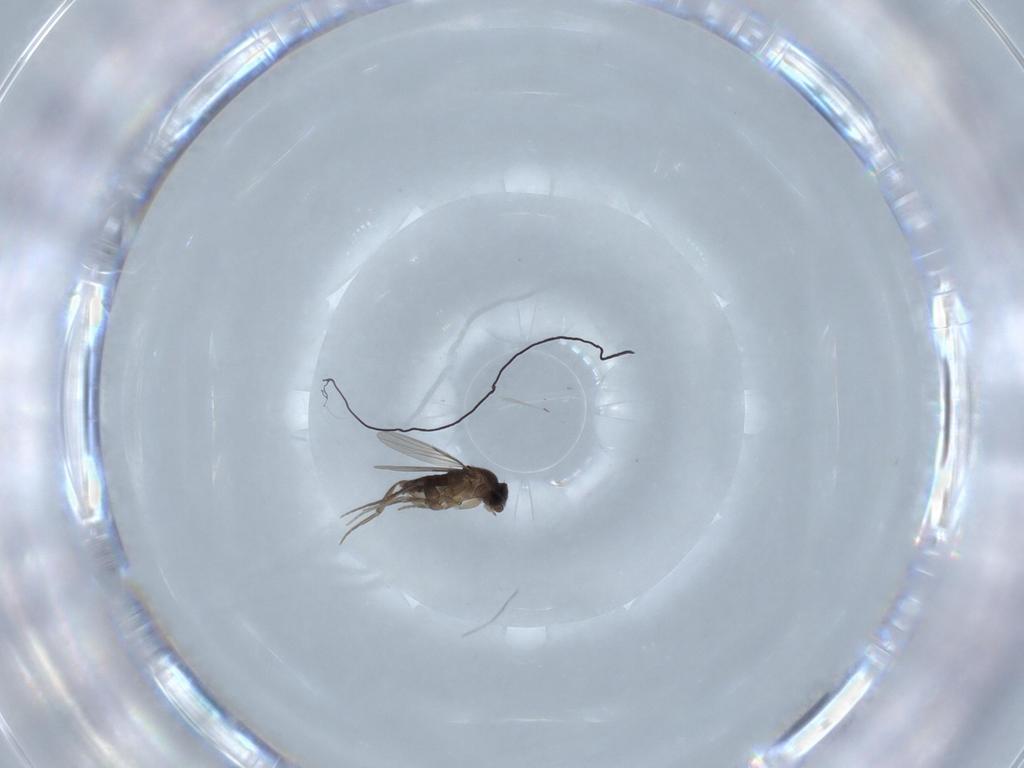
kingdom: Animalia
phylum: Arthropoda
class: Insecta
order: Diptera
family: Phoridae
